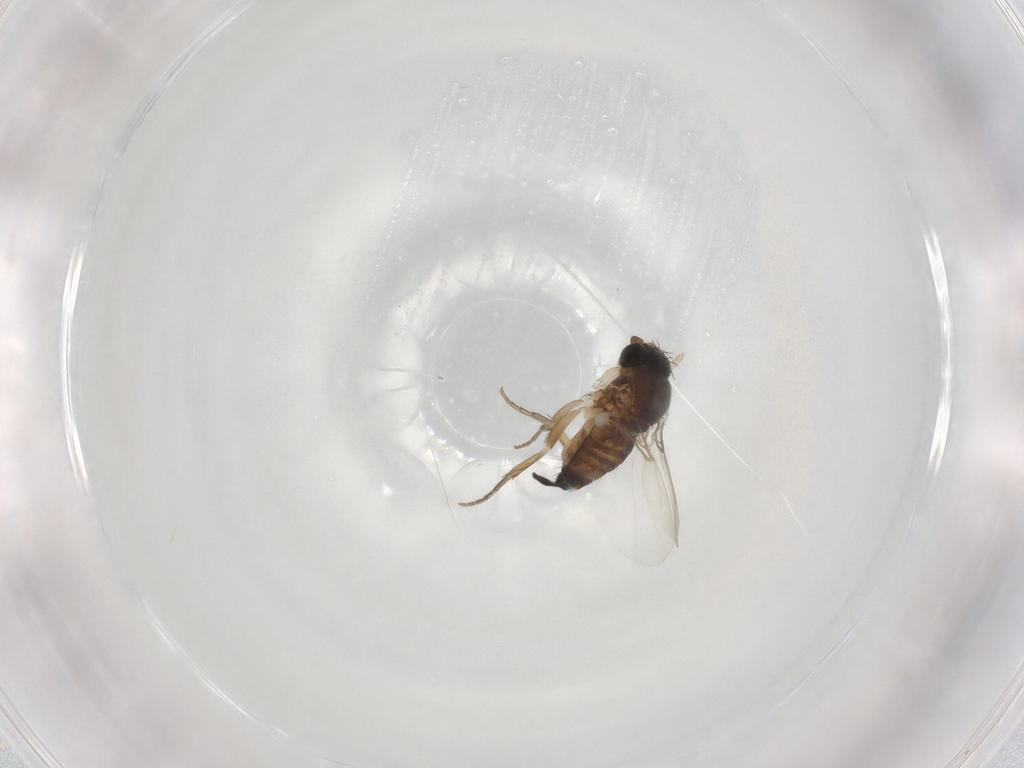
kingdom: Animalia
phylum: Arthropoda
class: Insecta
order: Diptera
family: Phoridae
